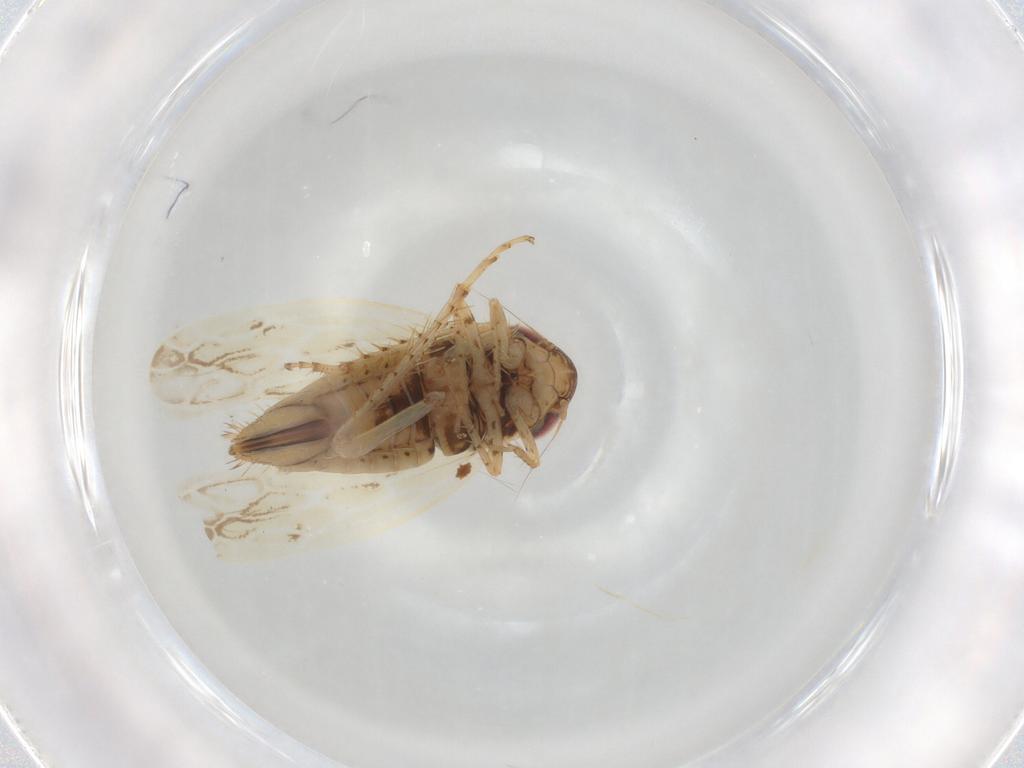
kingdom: Animalia
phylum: Arthropoda
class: Insecta
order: Hemiptera
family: Cicadellidae
